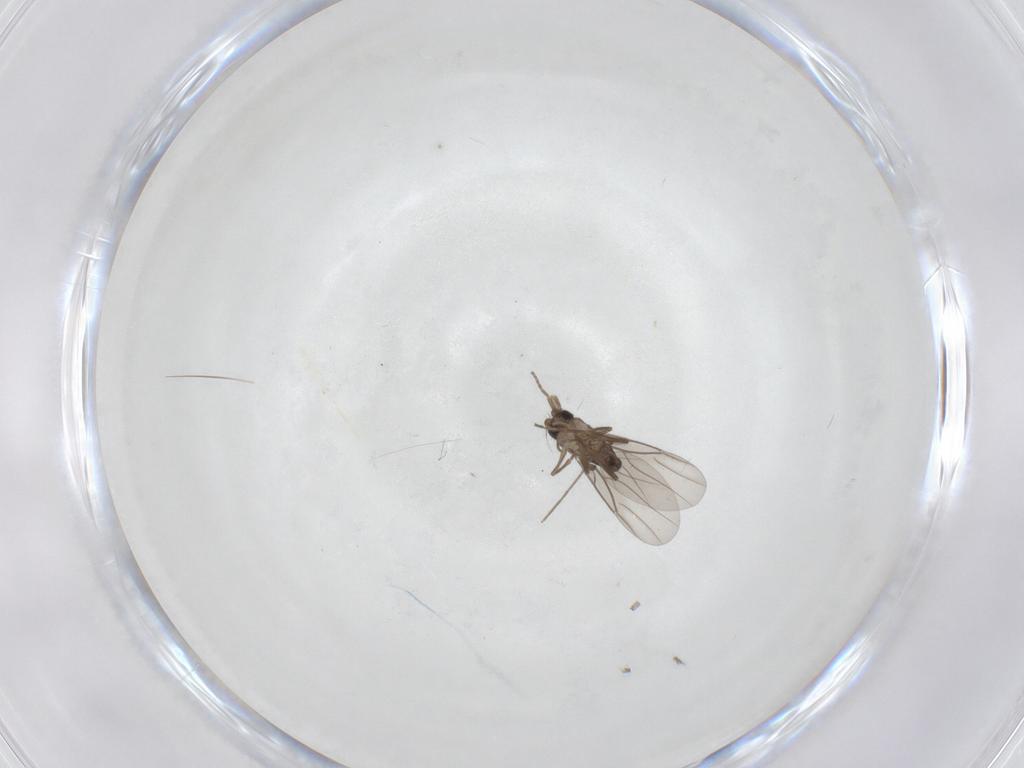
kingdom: Animalia
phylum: Arthropoda
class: Insecta
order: Diptera
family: Phoridae
